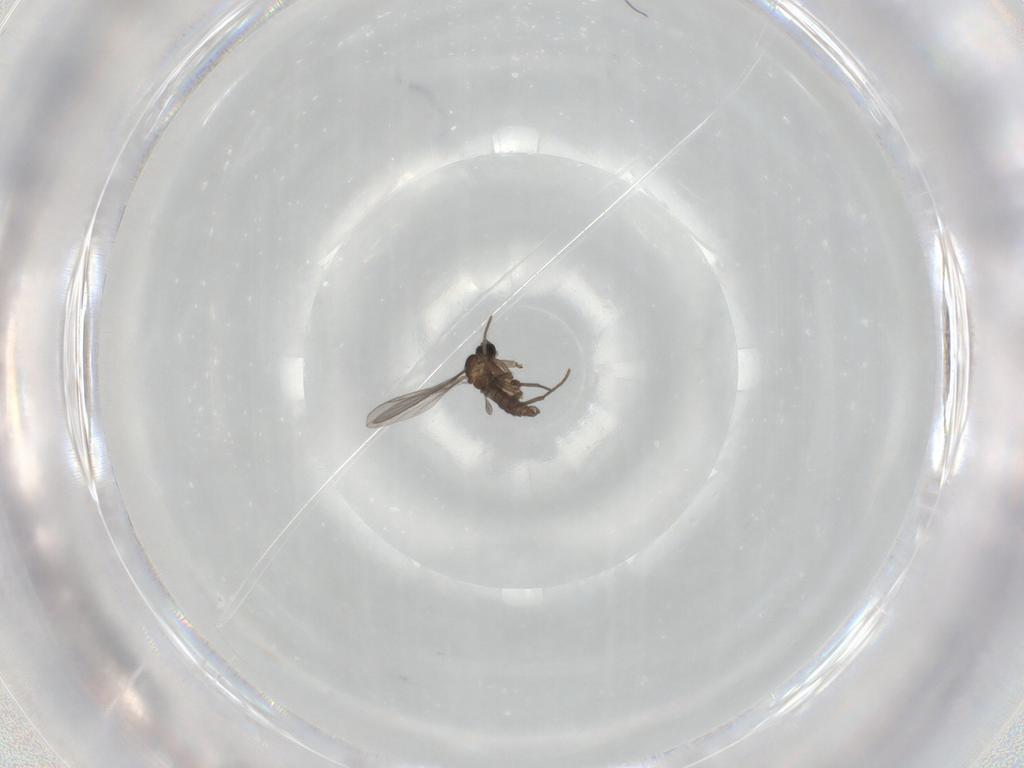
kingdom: Animalia
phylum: Arthropoda
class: Insecta
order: Diptera
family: Sciaridae
